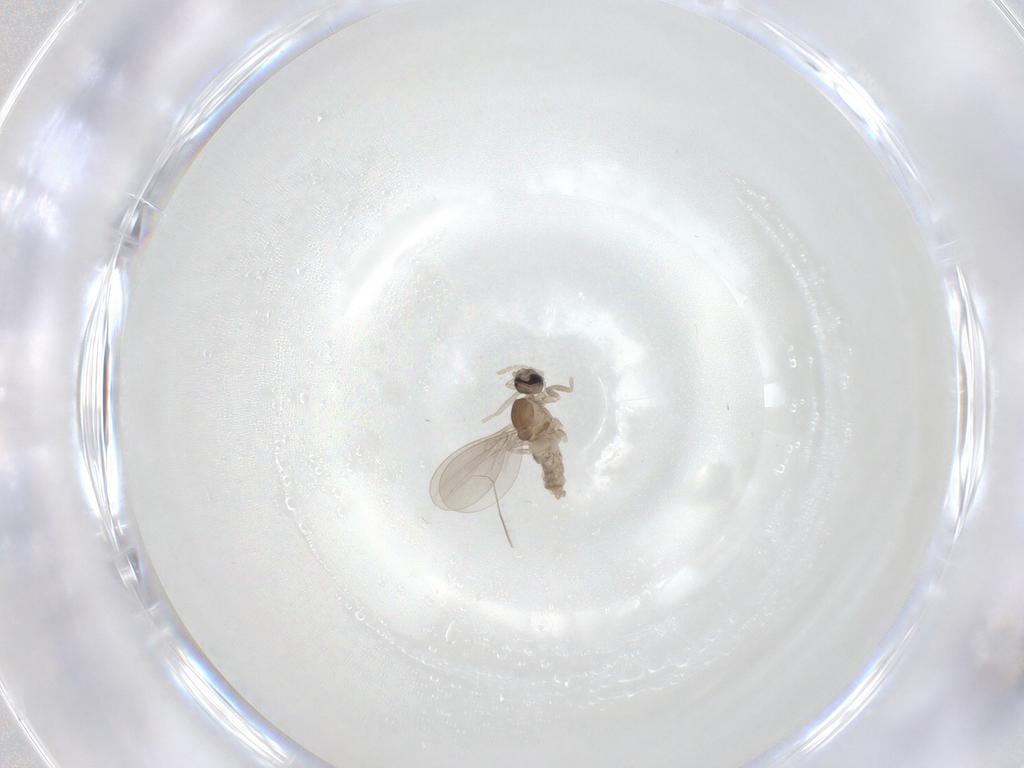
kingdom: Animalia
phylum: Arthropoda
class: Insecta
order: Diptera
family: Cecidomyiidae
